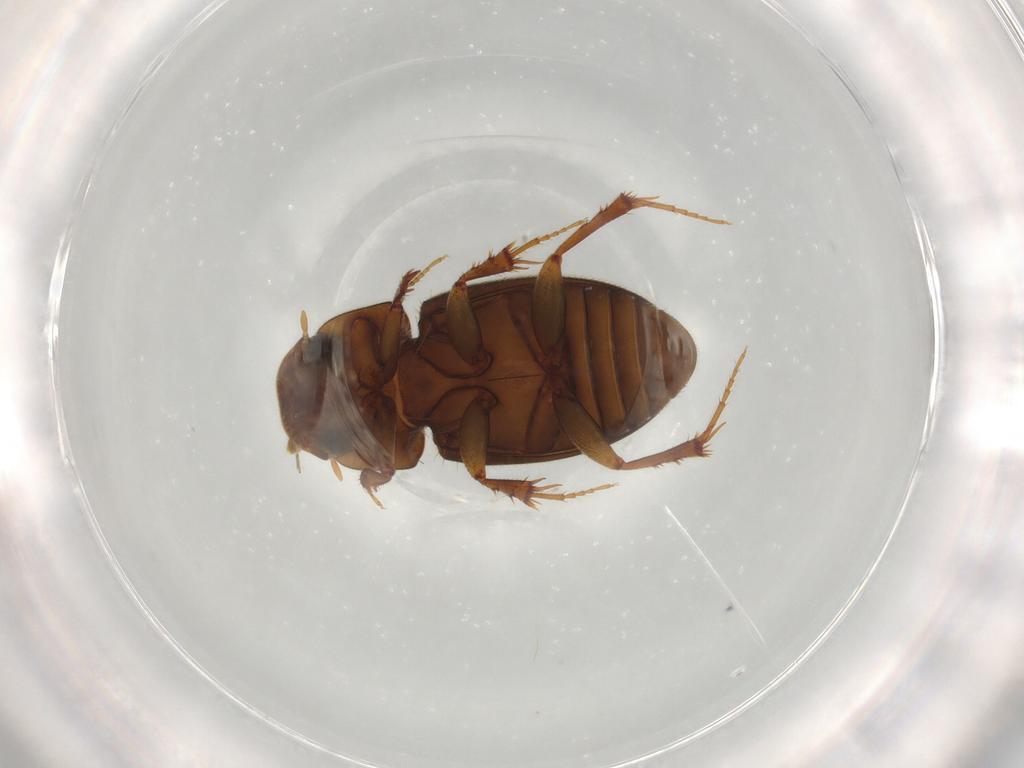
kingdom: Animalia
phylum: Arthropoda
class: Insecta
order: Coleoptera
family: Scarabaeidae
